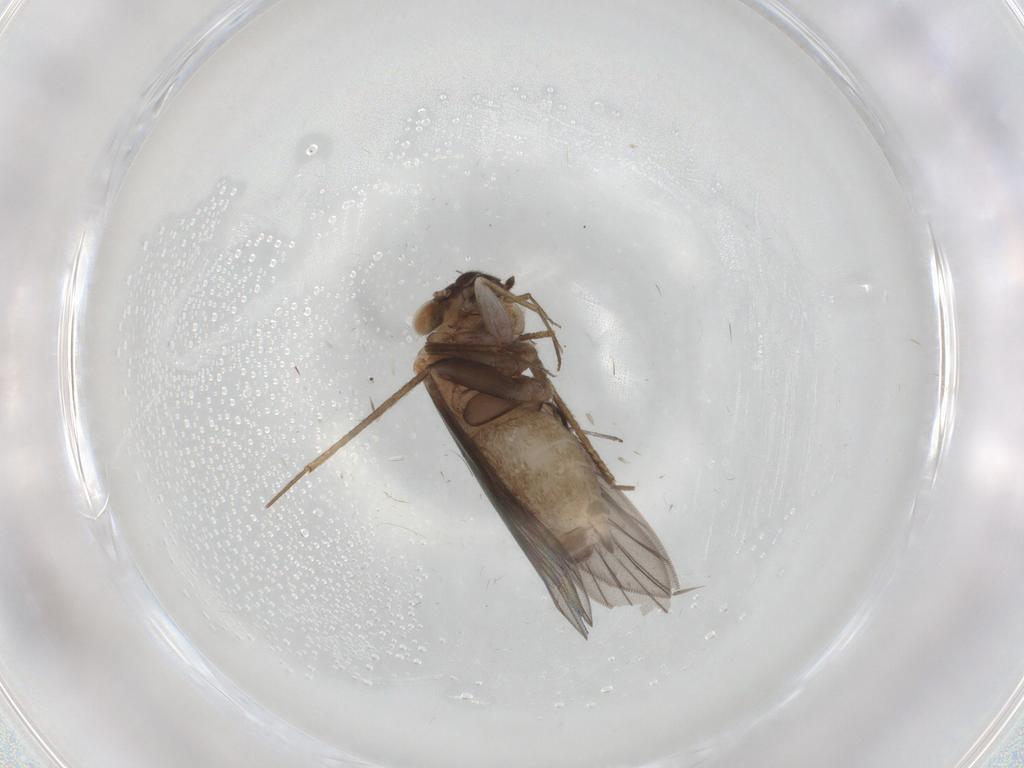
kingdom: Animalia
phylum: Arthropoda
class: Insecta
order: Psocodea
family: Lepidopsocidae
